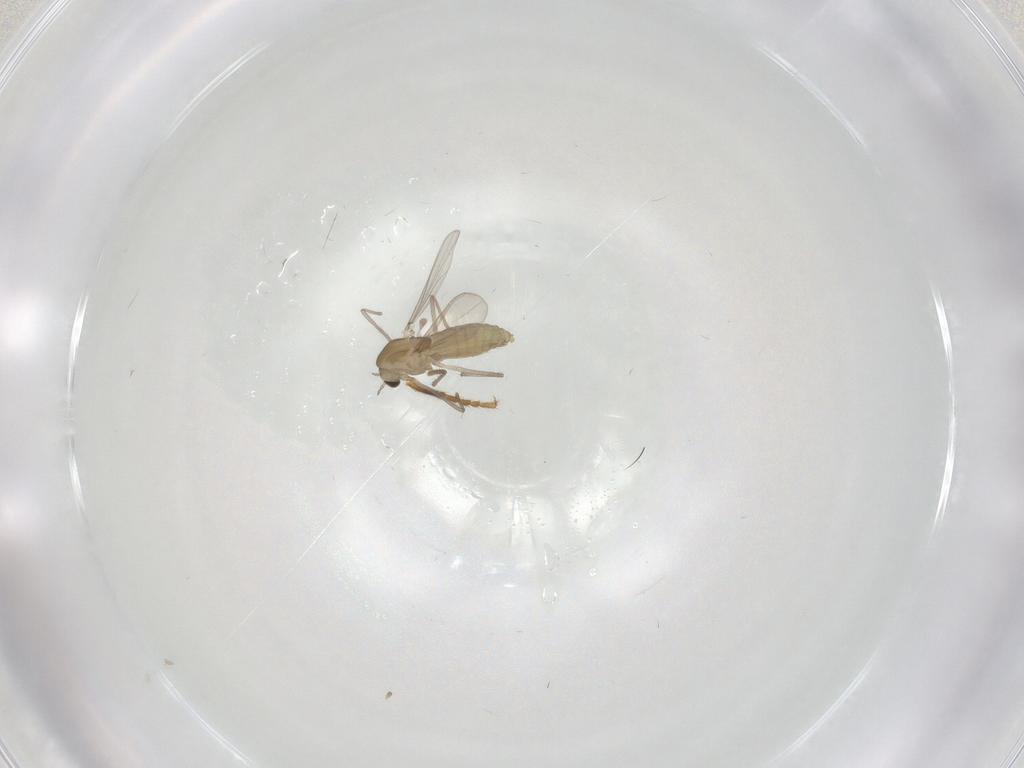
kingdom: Animalia
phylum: Arthropoda
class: Insecta
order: Diptera
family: Chironomidae
